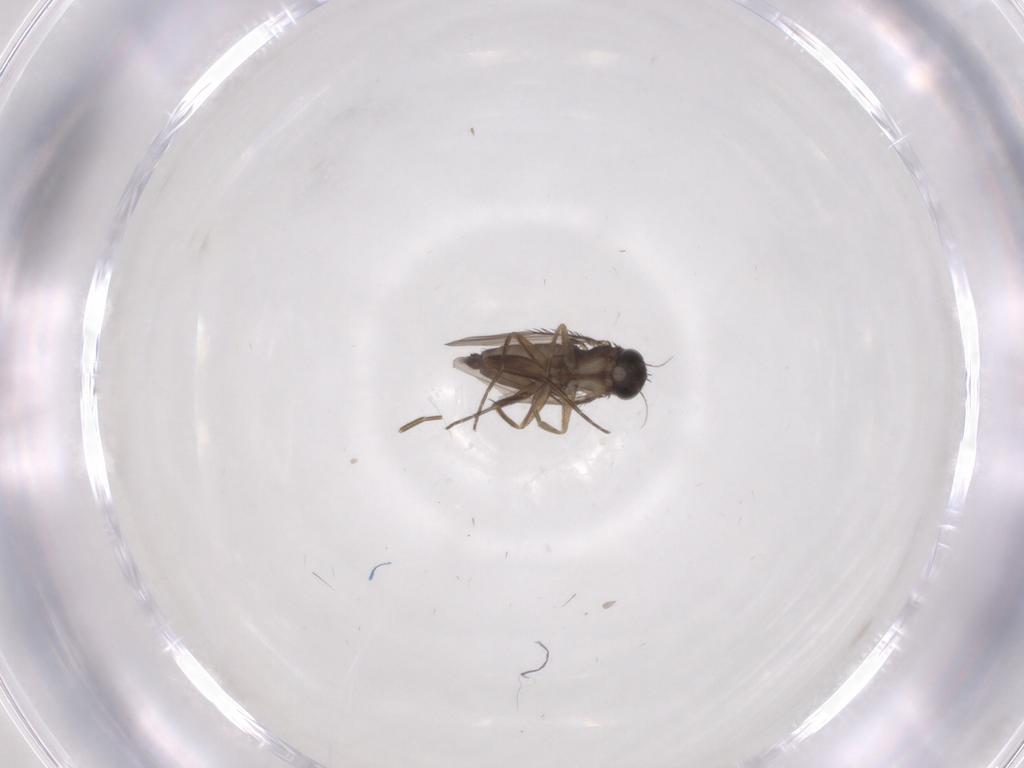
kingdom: Animalia
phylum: Arthropoda
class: Insecta
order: Diptera
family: Phoridae
